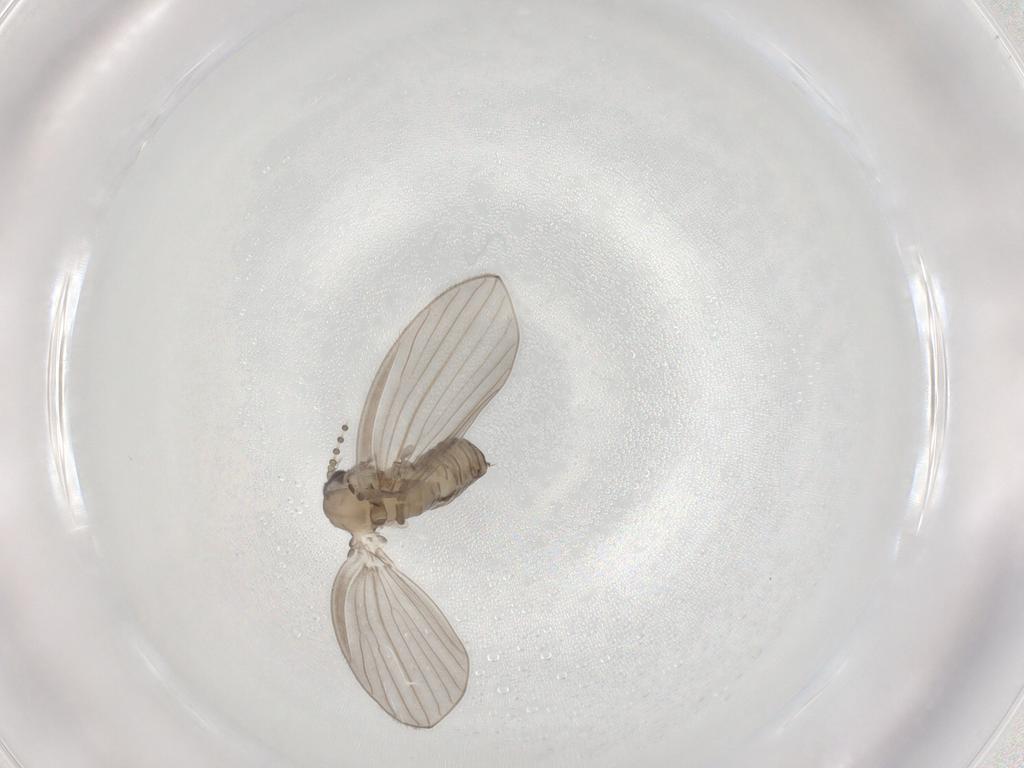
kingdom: Animalia
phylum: Arthropoda
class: Insecta
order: Diptera
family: Psychodidae
